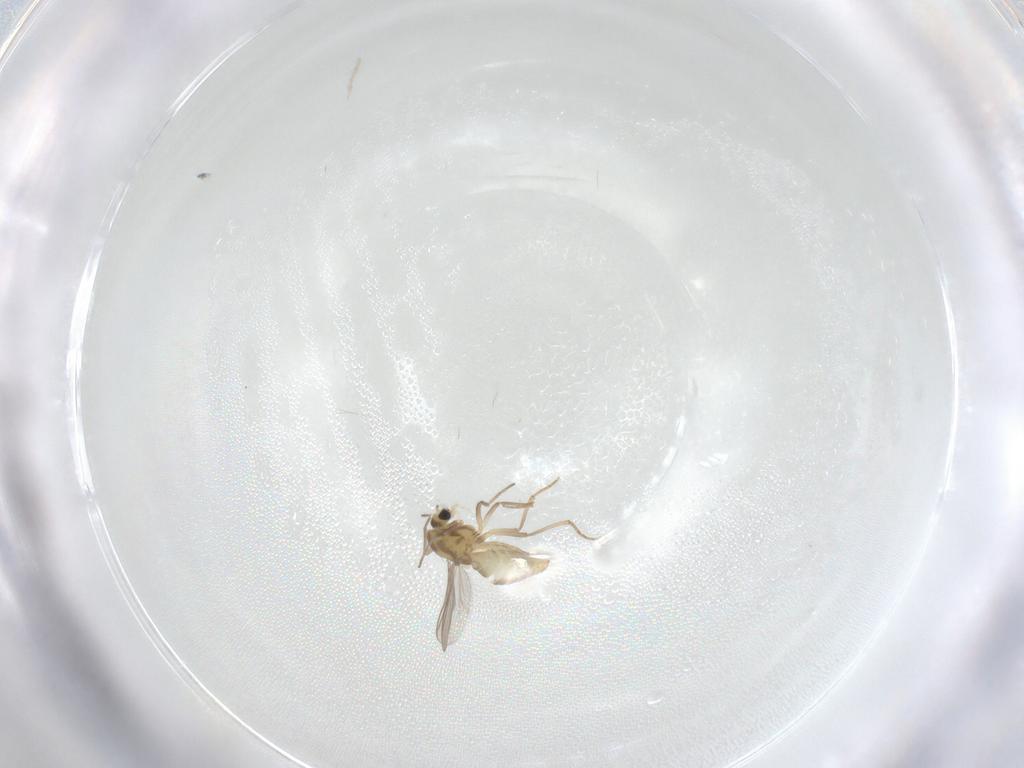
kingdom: Animalia
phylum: Arthropoda
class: Insecta
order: Diptera
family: Chironomidae
